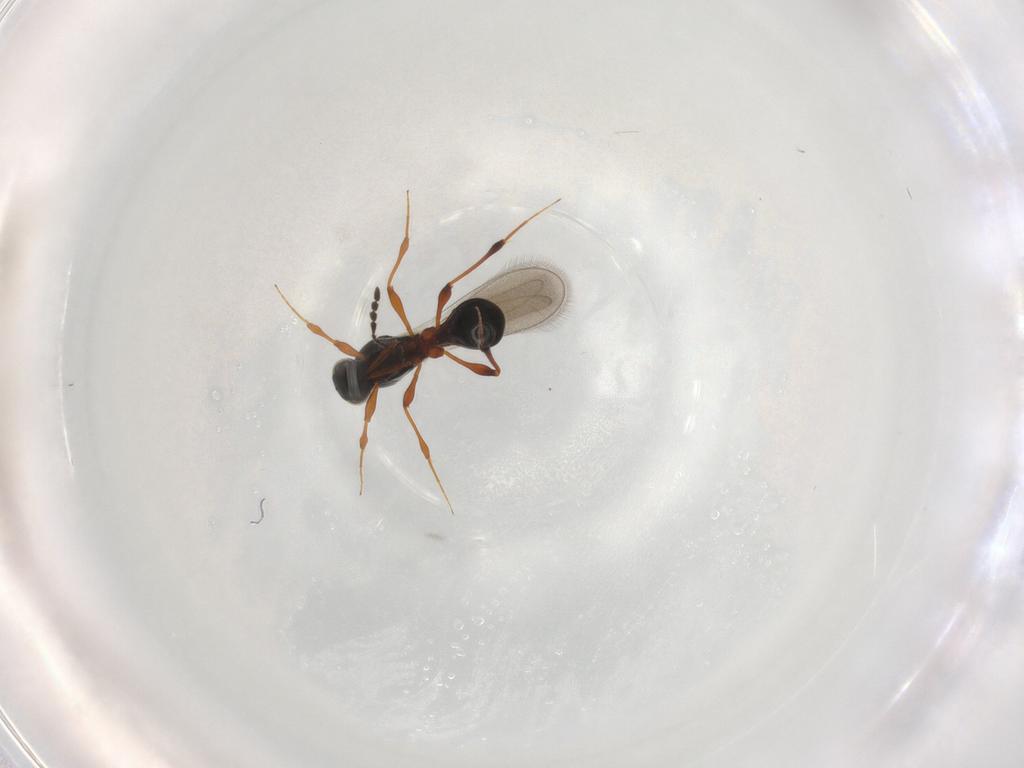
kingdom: Animalia
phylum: Arthropoda
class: Insecta
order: Hymenoptera
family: Platygastridae
